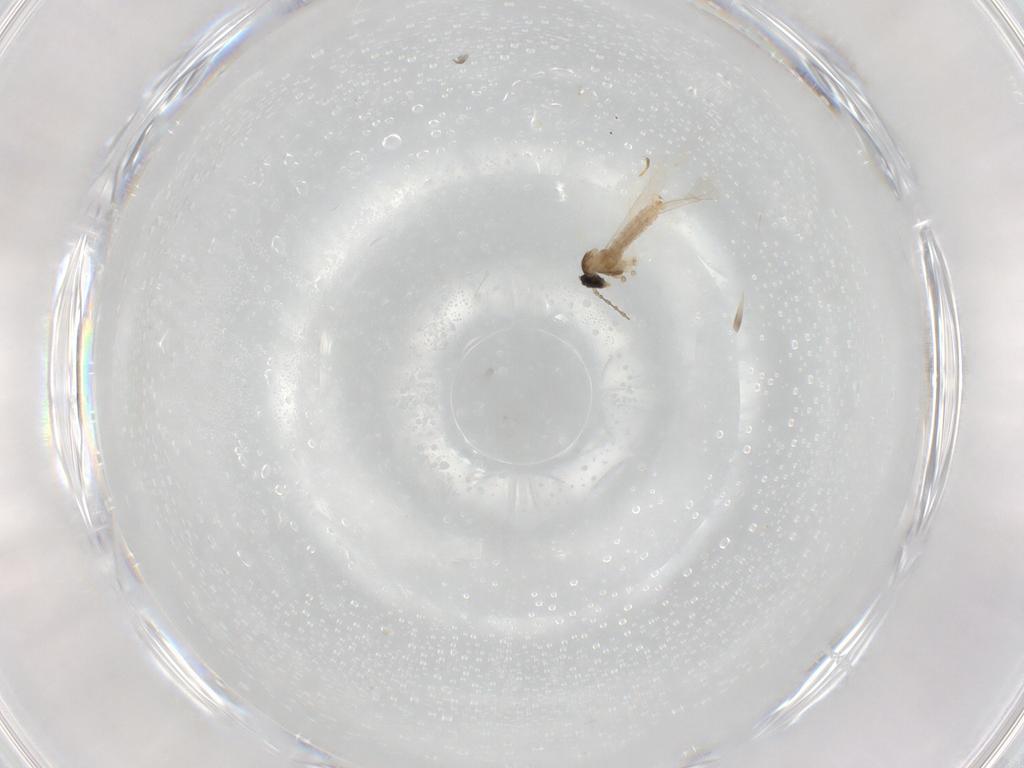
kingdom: Animalia
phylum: Arthropoda
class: Insecta
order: Diptera
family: Cecidomyiidae
